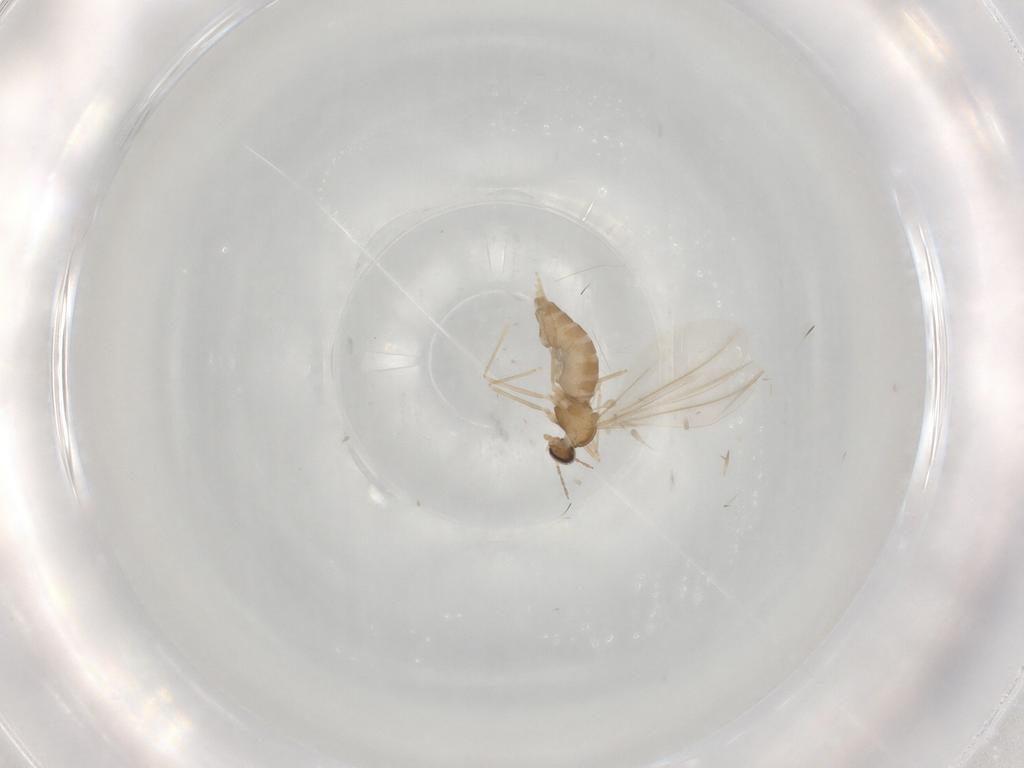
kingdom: Animalia
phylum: Arthropoda
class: Insecta
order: Diptera
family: Cecidomyiidae
